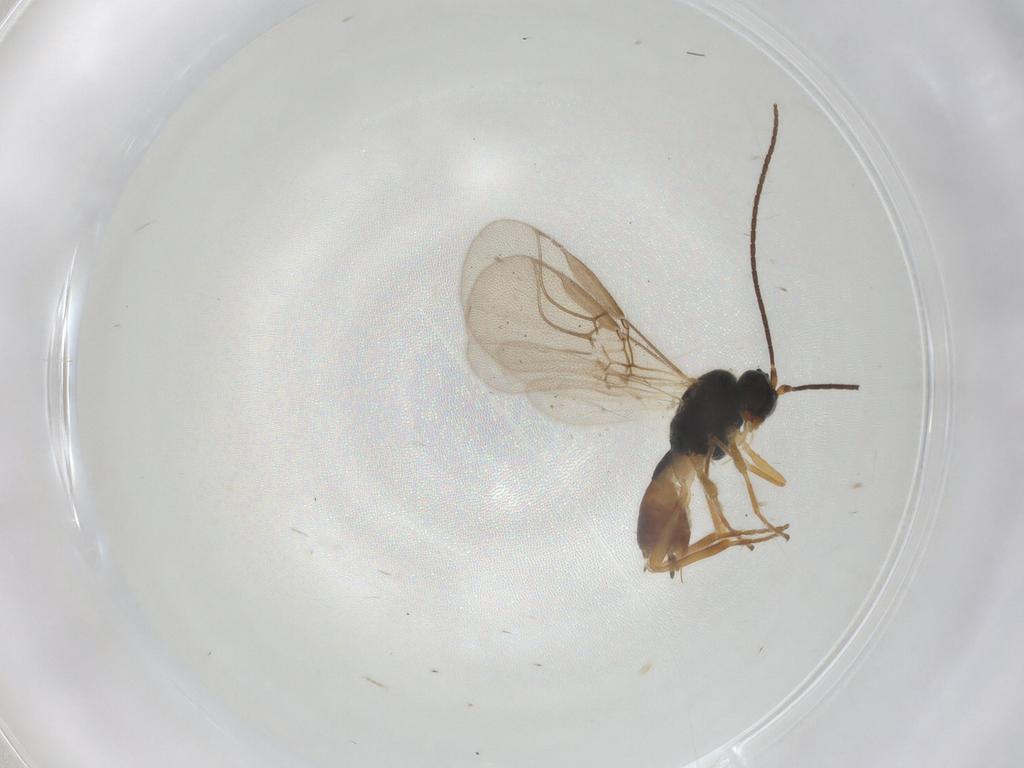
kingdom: Animalia
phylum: Arthropoda
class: Insecta
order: Hymenoptera
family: Braconidae
